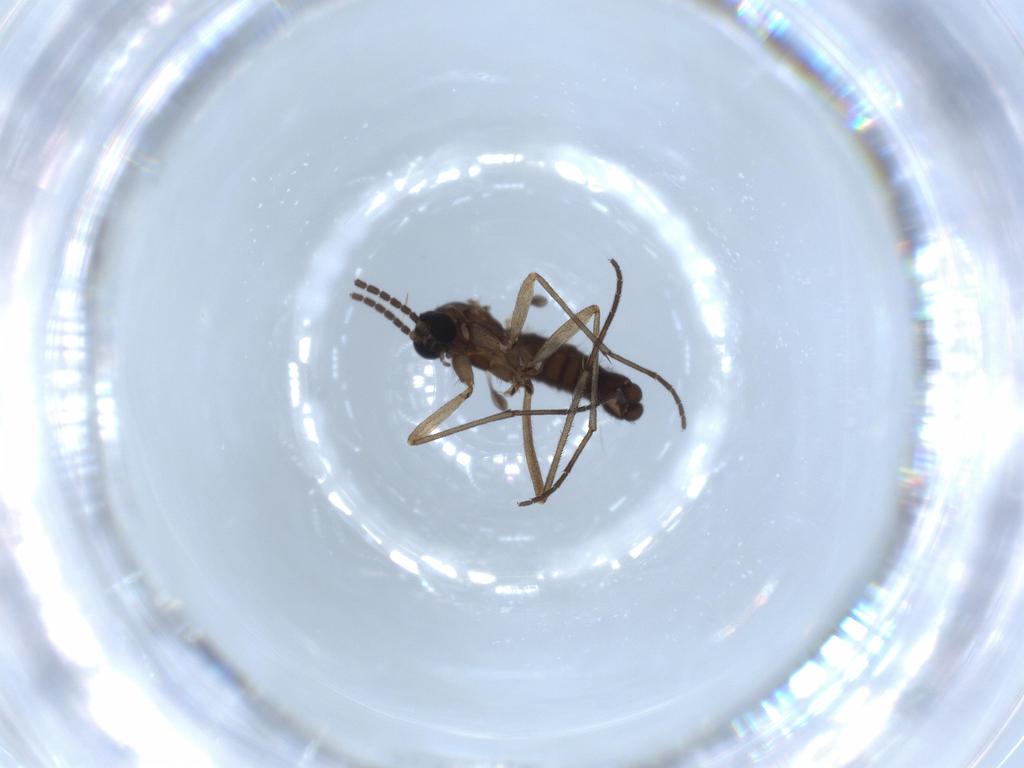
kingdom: Animalia
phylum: Arthropoda
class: Insecta
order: Diptera
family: Sciaridae
